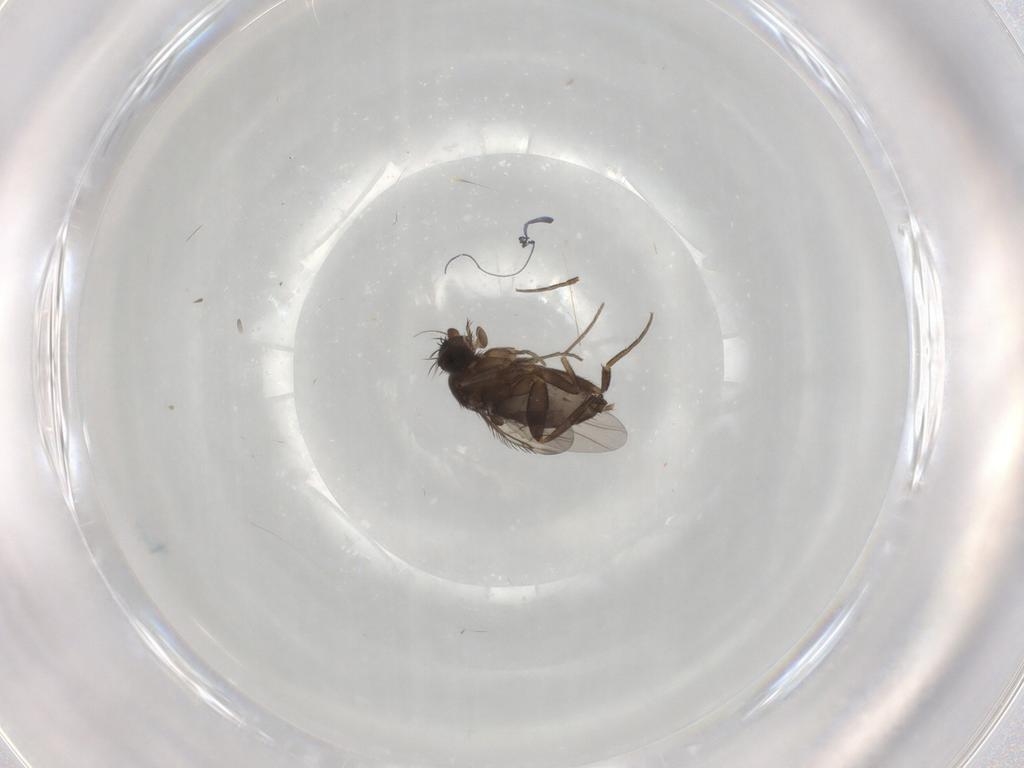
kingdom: Animalia
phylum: Arthropoda
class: Insecta
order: Diptera
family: Phoridae
